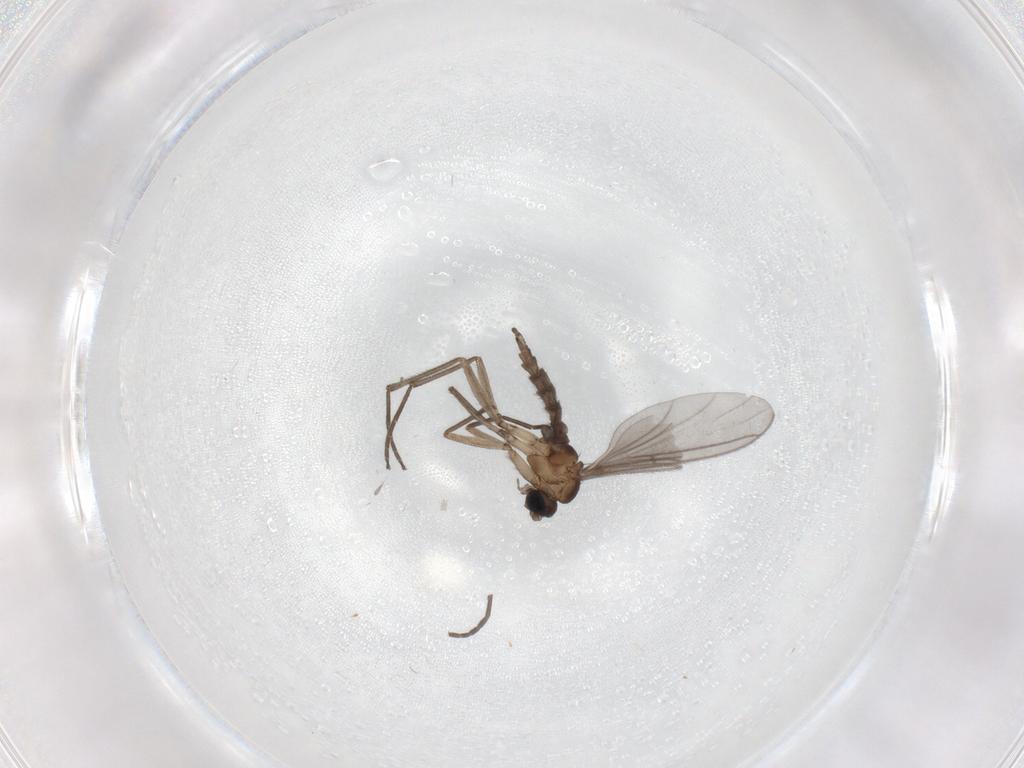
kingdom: Animalia
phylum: Arthropoda
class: Insecta
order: Diptera
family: Sciaridae
